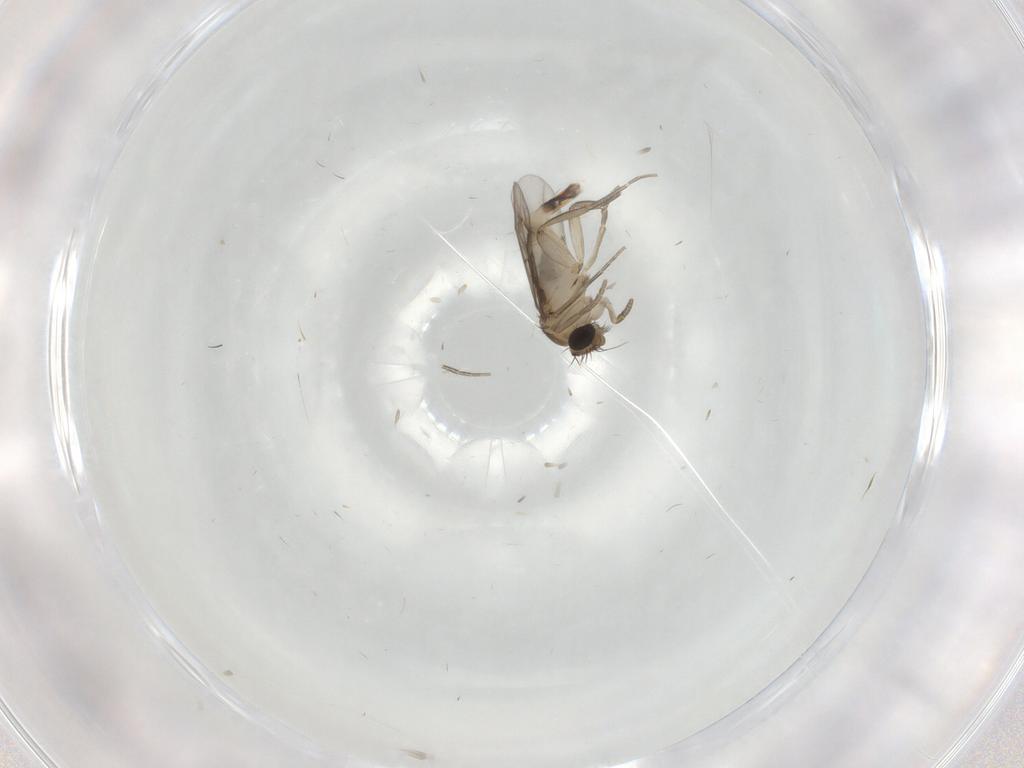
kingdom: Animalia
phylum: Arthropoda
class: Insecta
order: Diptera
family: Phoridae
